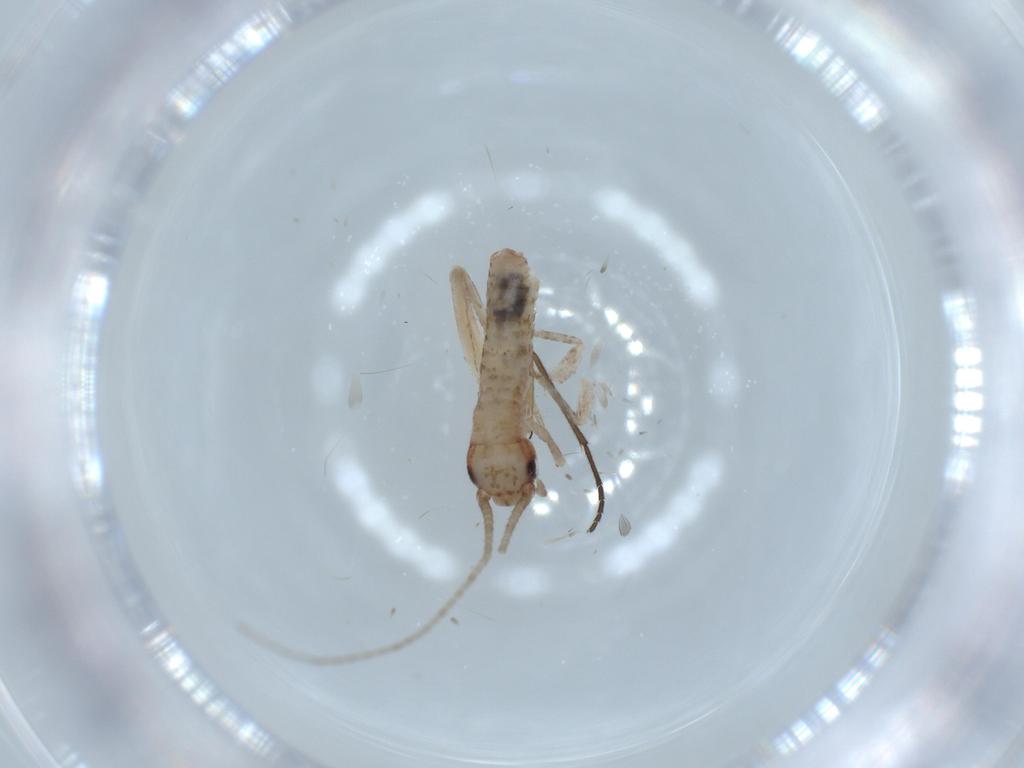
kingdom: Animalia
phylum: Arthropoda
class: Insecta
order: Orthoptera
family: Mogoplistidae
